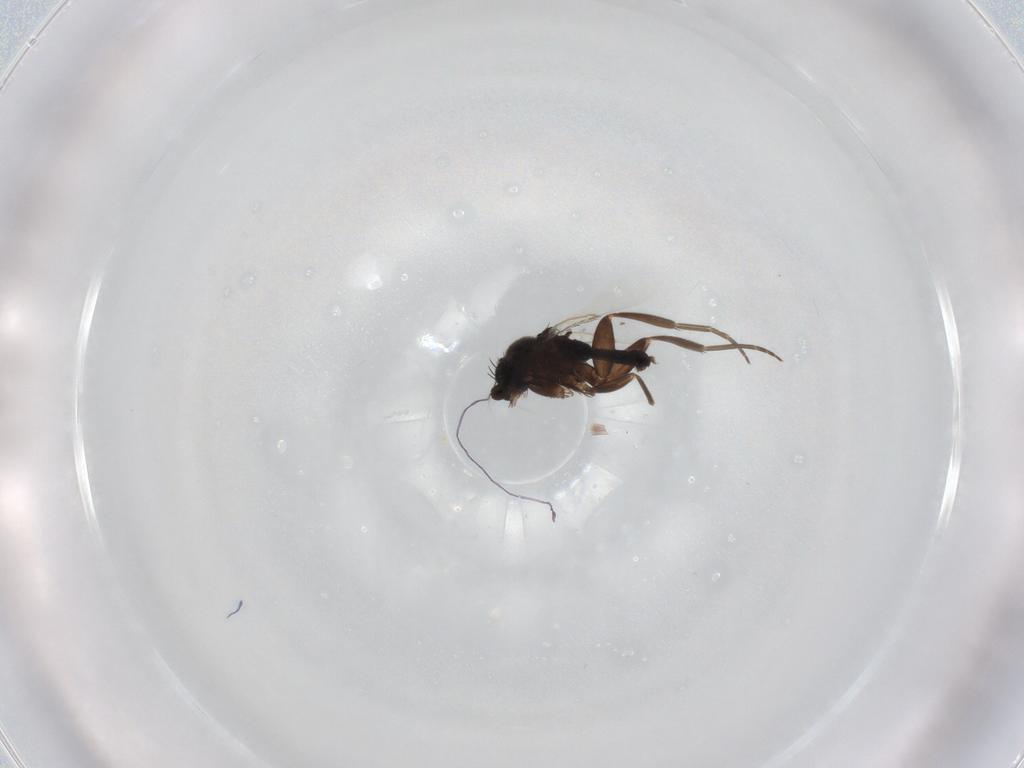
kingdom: Animalia
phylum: Arthropoda
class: Insecta
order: Diptera
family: Phoridae
